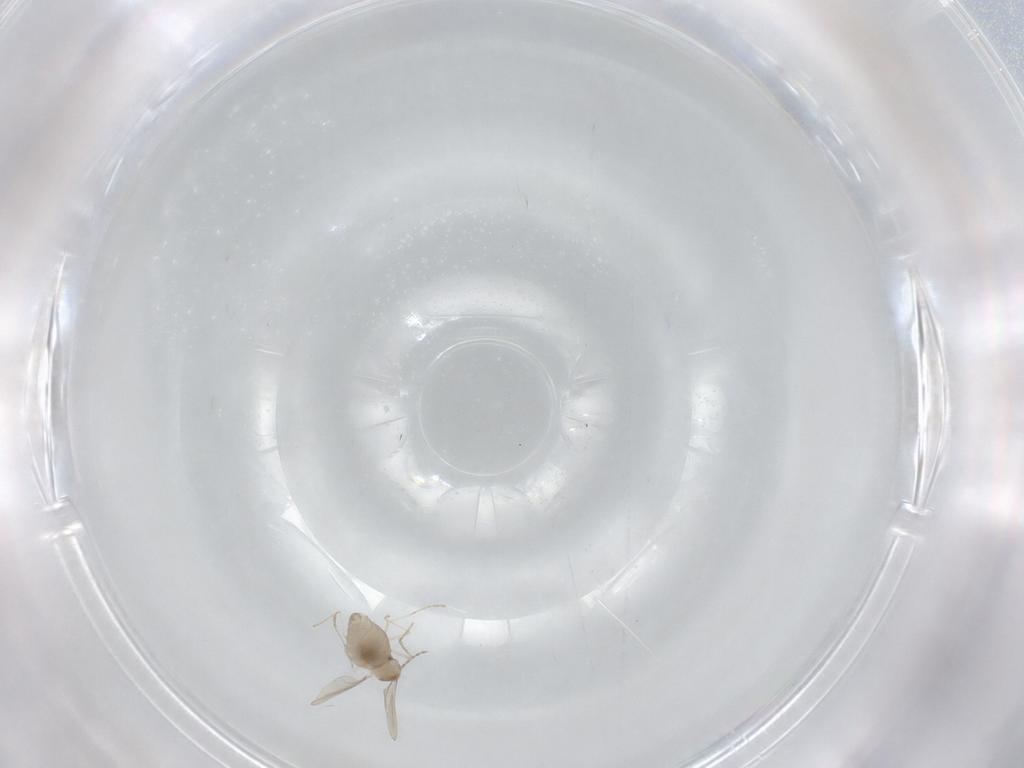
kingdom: Animalia
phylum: Arthropoda
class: Insecta
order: Diptera
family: Cecidomyiidae
